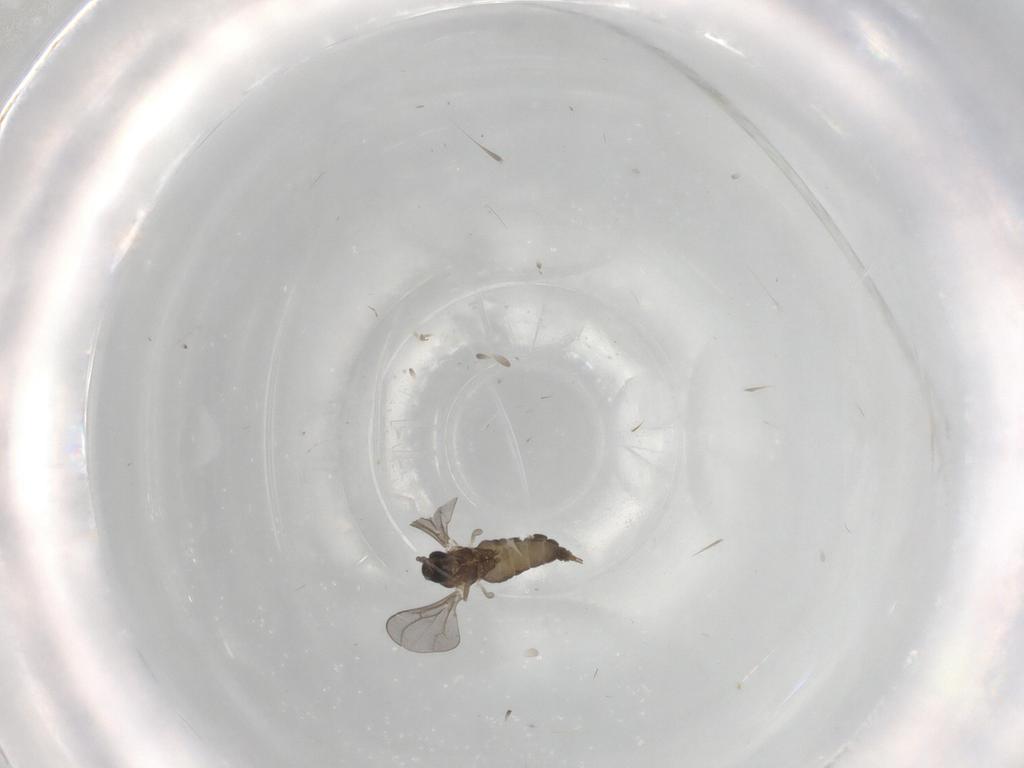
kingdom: Animalia
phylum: Arthropoda
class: Insecta
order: Diptera
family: Cecidomyiidae
